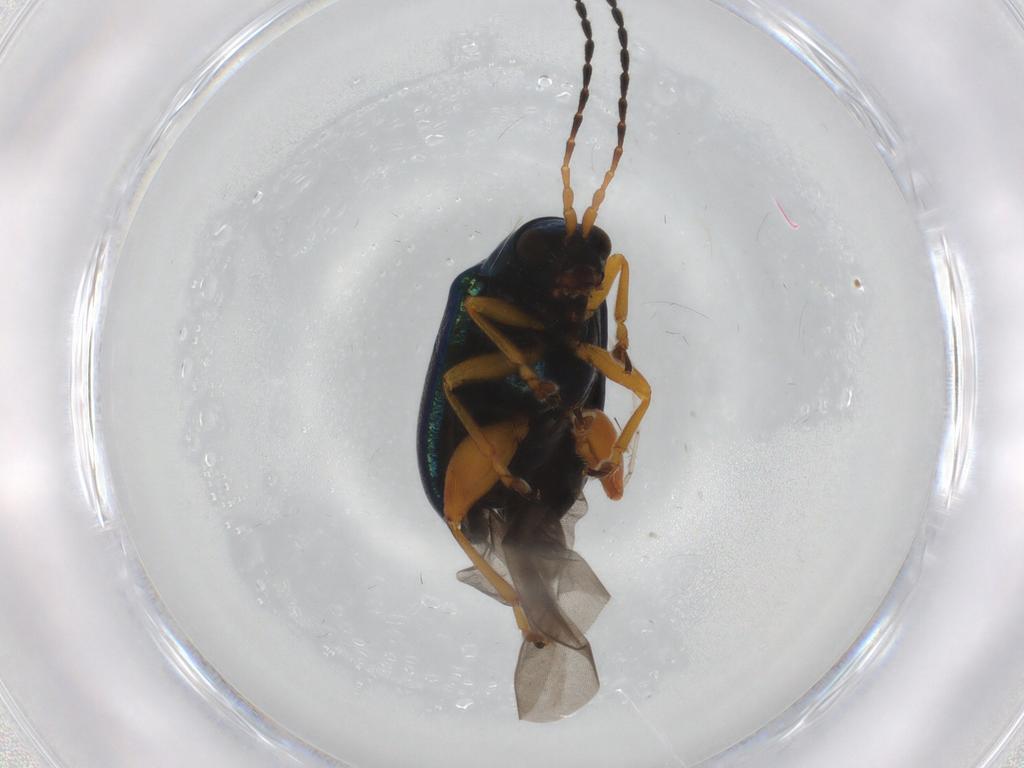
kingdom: Animalia
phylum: Arthropoda
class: Insecta
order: Coleoptera
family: Chrysomelidae
